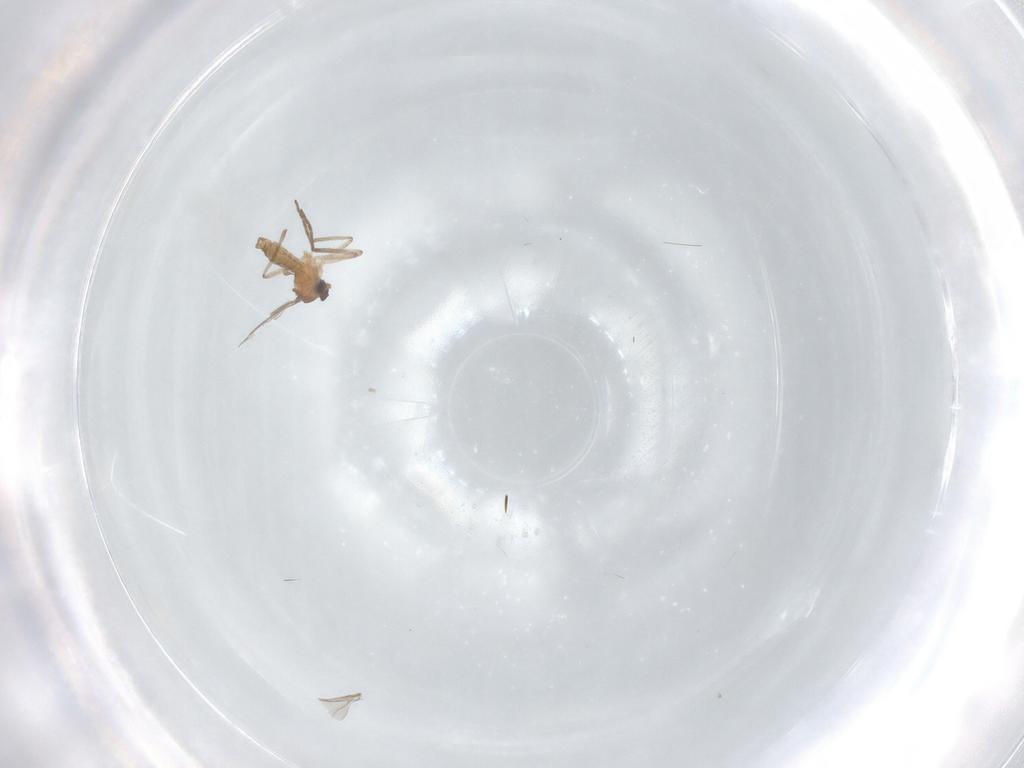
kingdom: Animalia
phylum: Arthropoda
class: Insecta
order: Diptera
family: Cecidomyiidae
